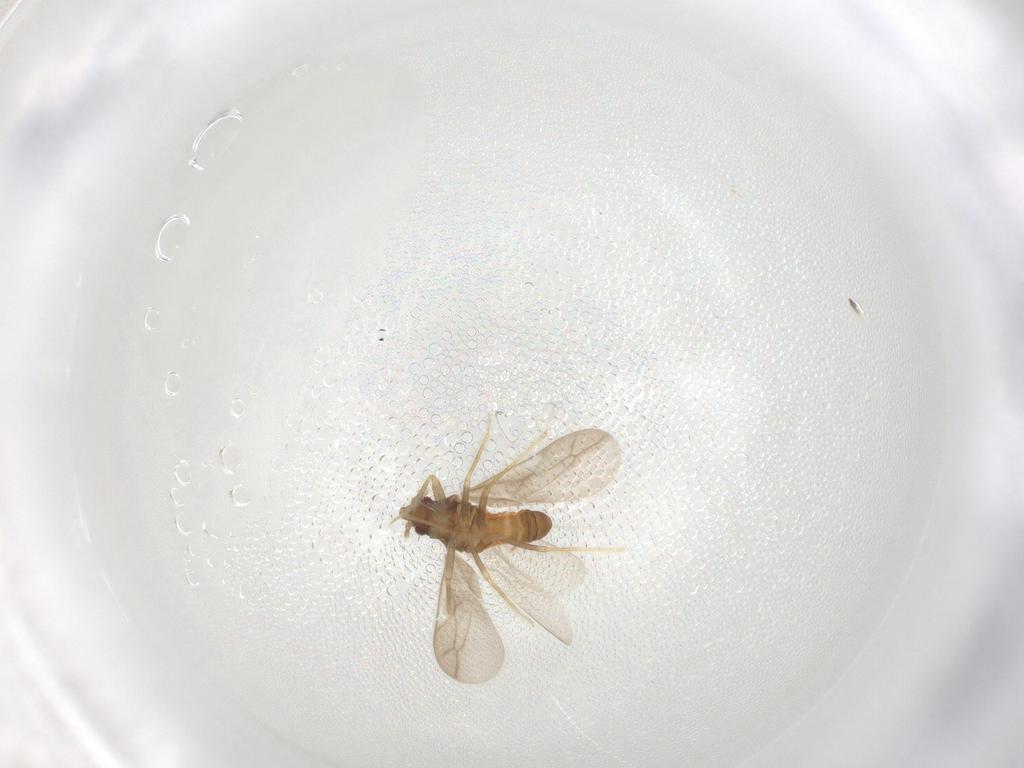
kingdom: Animalia
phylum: Arthropoda
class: Insecta
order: Hemiptera
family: Ceratocombidae
